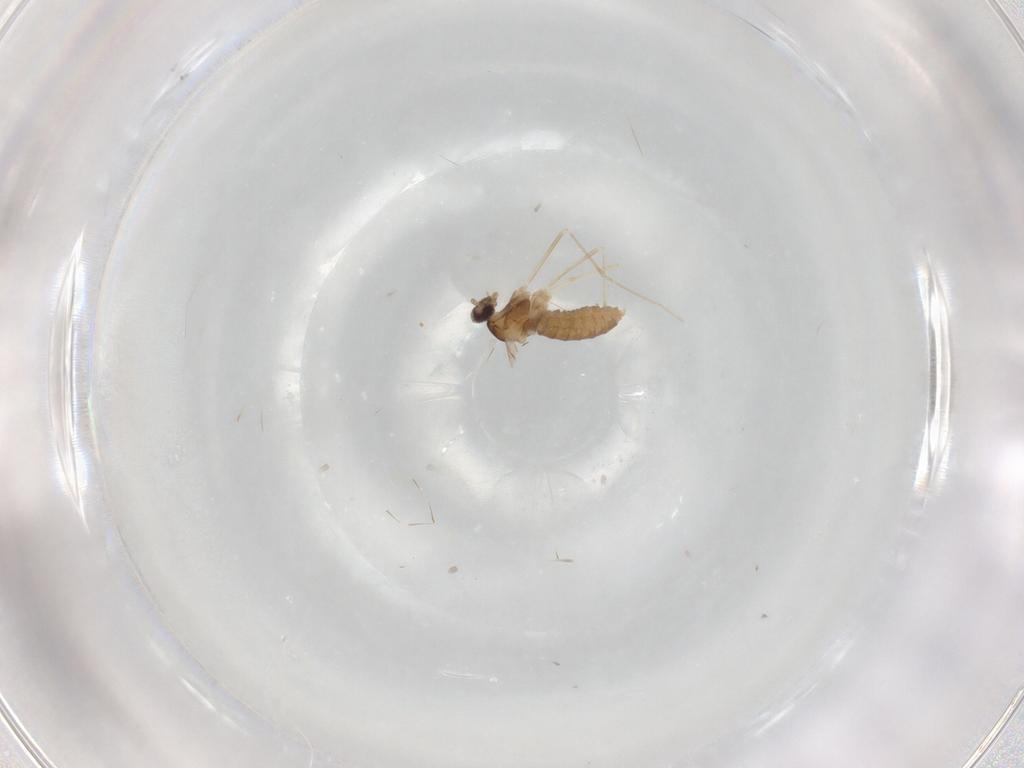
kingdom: Animalia
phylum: Arthropoda
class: Insecta
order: Diptera
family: Cecidomyiidae
